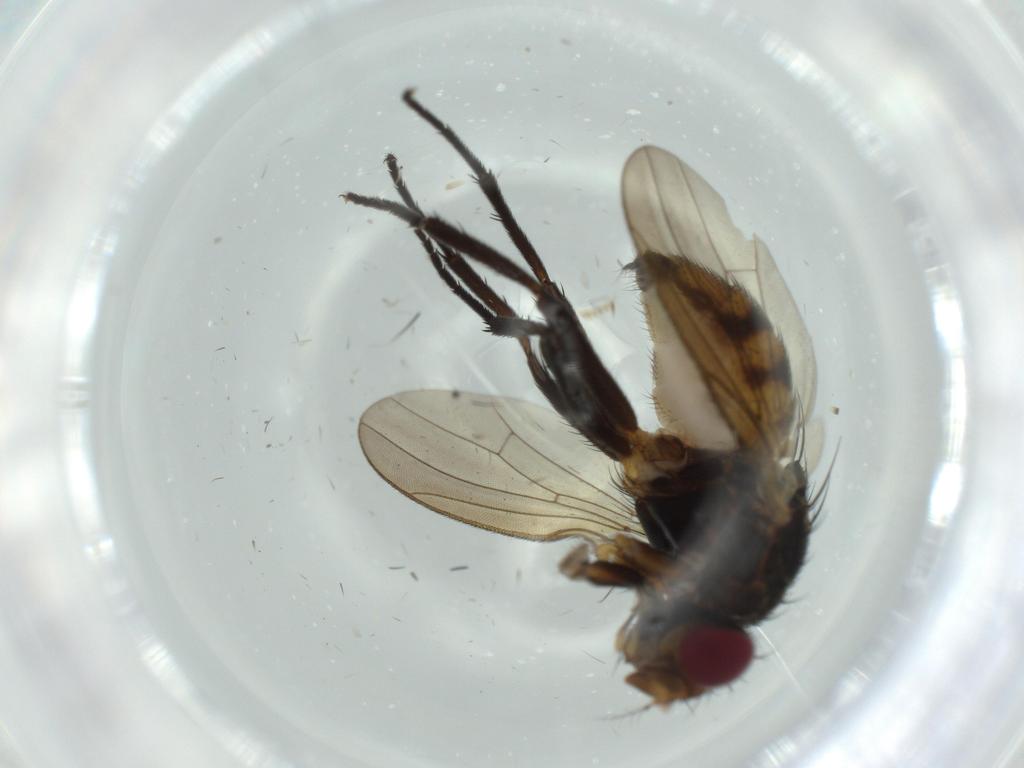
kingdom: Animalia
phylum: Arthropoda
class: Insecta
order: Diptera
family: Anthomyiidae
